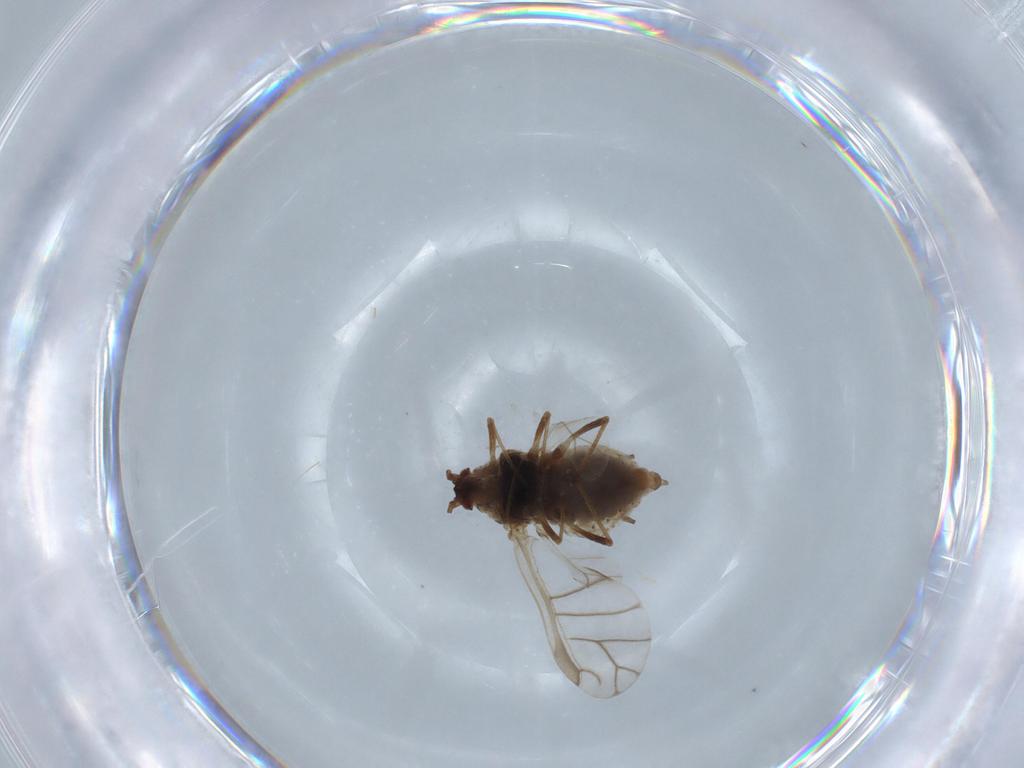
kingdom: Animalia
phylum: Arthropoda
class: Insecta
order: Hemiptera
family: Aphididae
